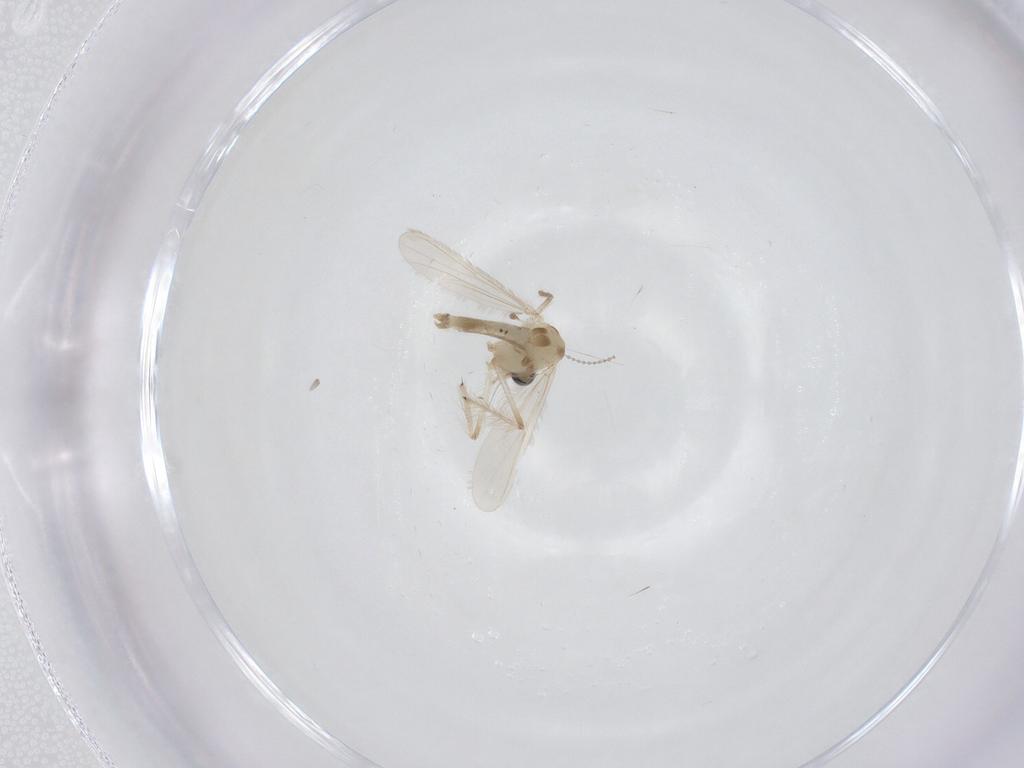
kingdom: Animalia
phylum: Arthropoda
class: Insecta
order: Diptera
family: Chironomidae
